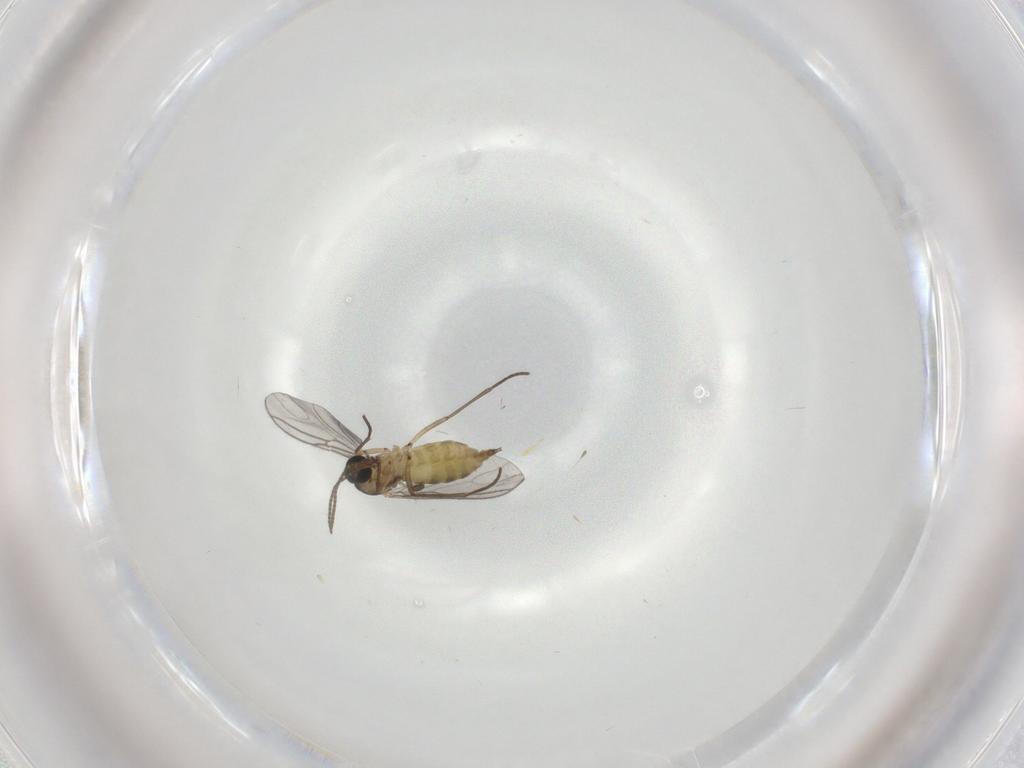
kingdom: Animalia
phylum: Arthropoda
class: Insecta
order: Diptera
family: Sciaridae
